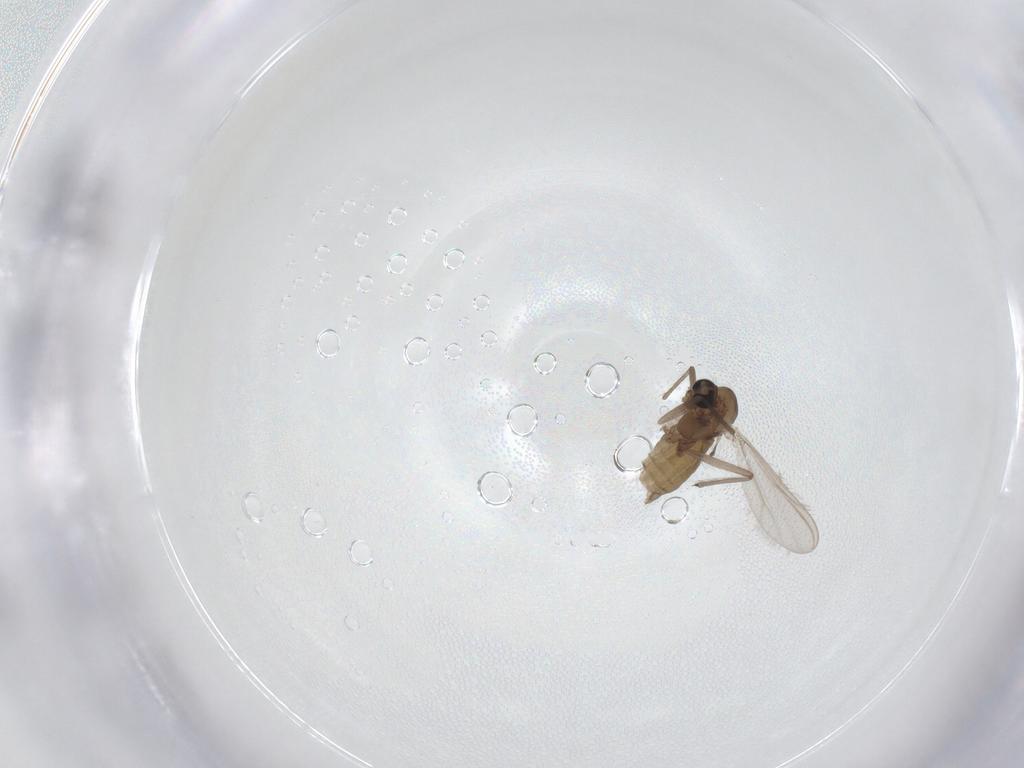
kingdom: Animalia
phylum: Arthropoda
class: Insecta
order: Diptera
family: Chironomidae
